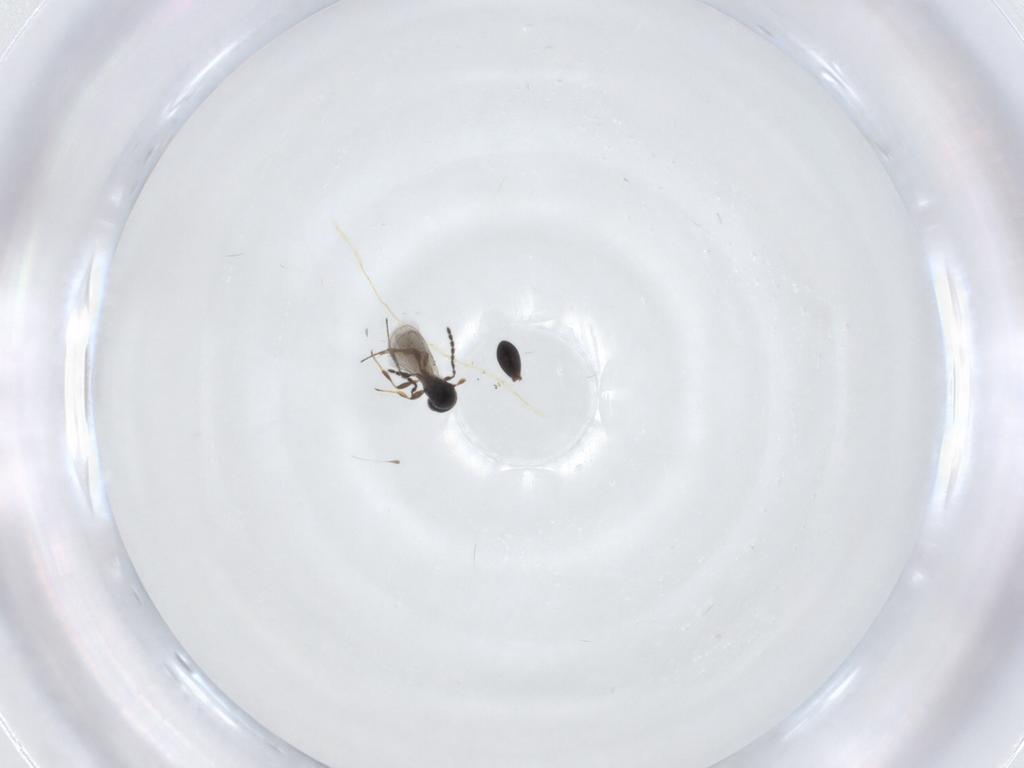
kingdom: Animalia
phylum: Arthropoda
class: Insecta
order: Hymenoptera
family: Platygastridae
